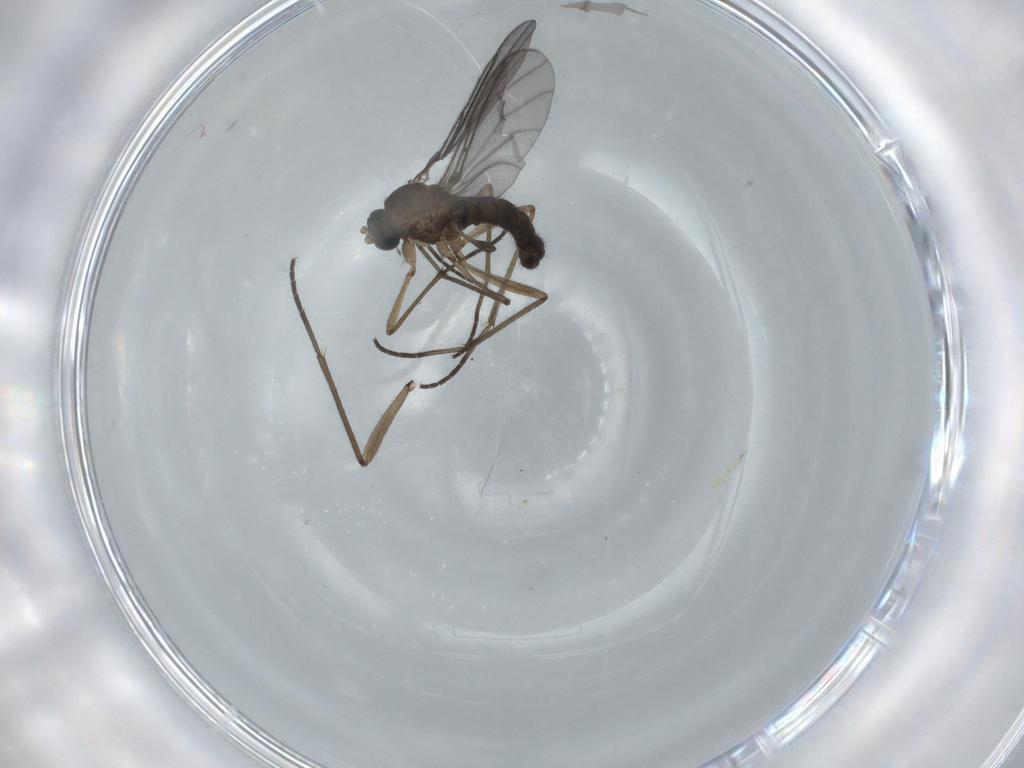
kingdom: Animalia
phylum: Arthropoda
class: Insecta
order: Diptera
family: Sciaridae
